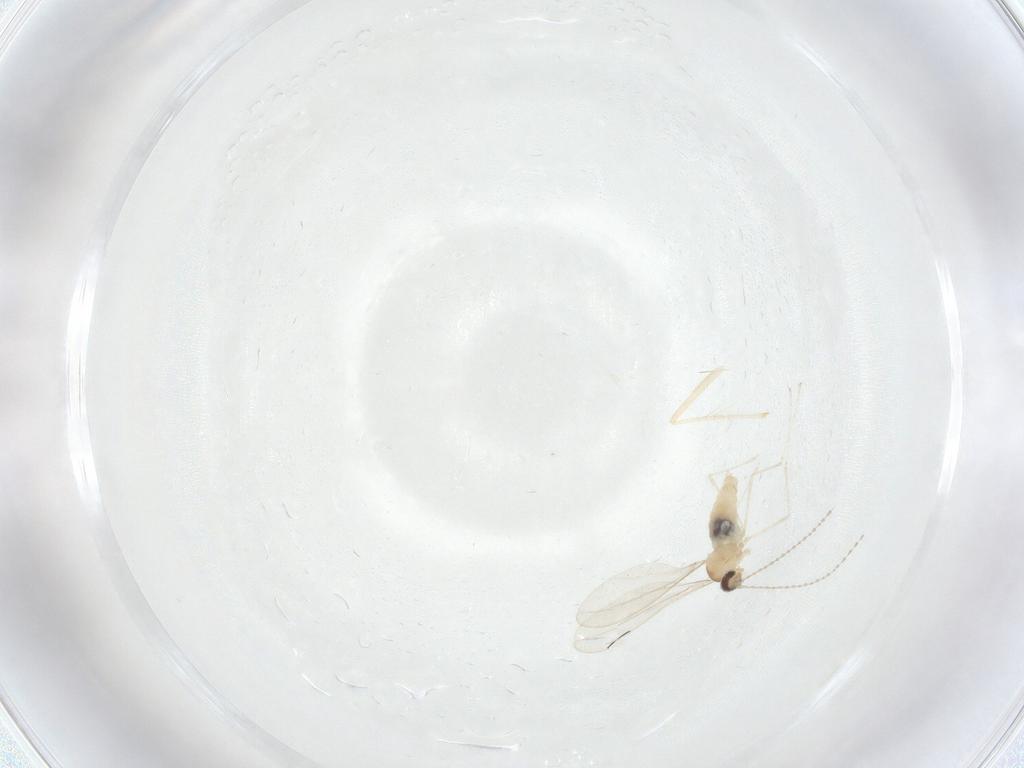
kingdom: Animalia
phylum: Arthropoda
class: Insecta
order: Diptera
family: Cecidomyiidae
